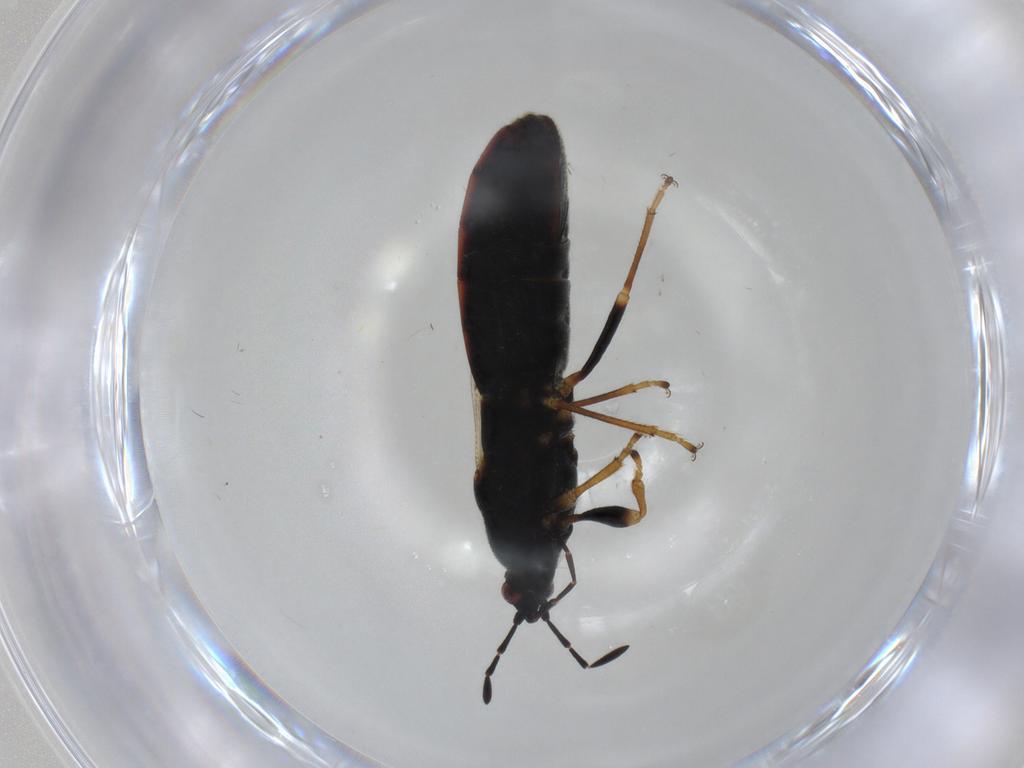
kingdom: Animalia
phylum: Arthropoda
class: Insecta
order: Hemiptera
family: Blissidae
